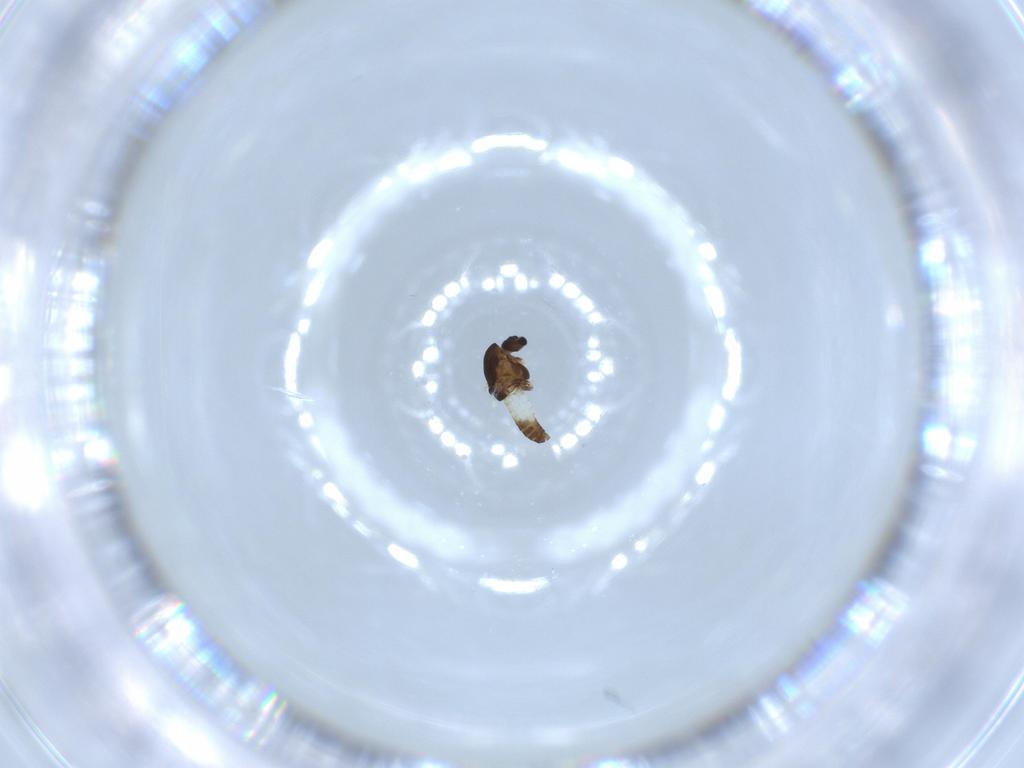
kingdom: Animalia
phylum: Arthropoda
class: Insecta
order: Diptera
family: Chironomidae
